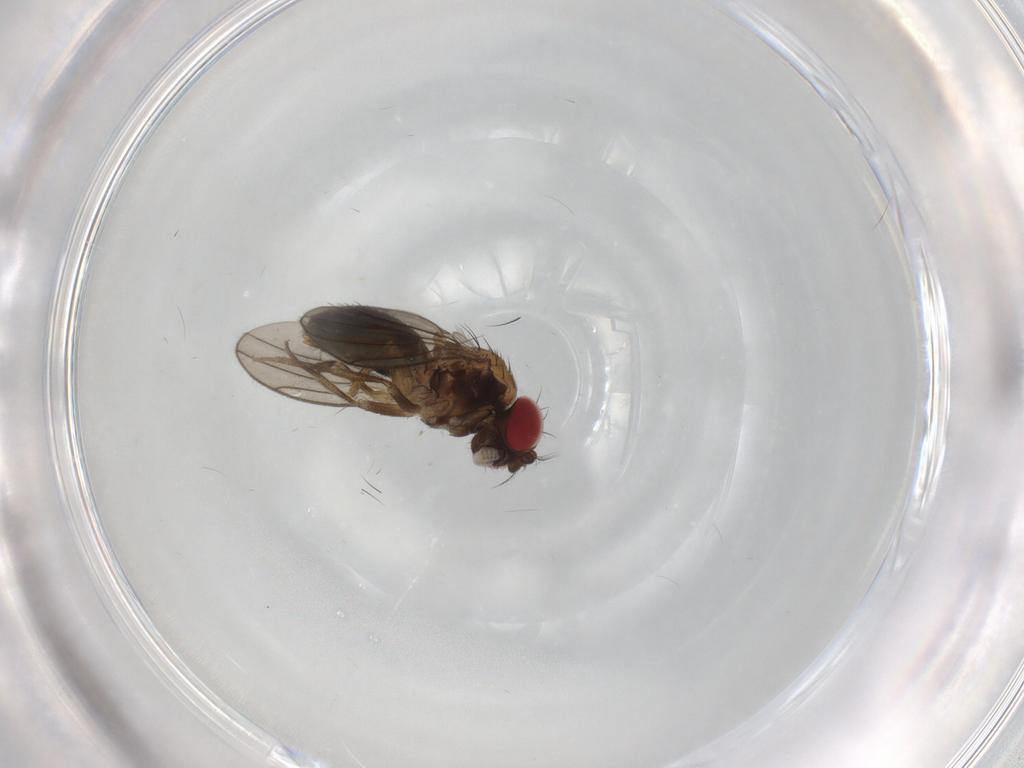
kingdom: Animalia
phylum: Arthropoda
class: Insecta
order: Diptera
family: Drosophilidae
